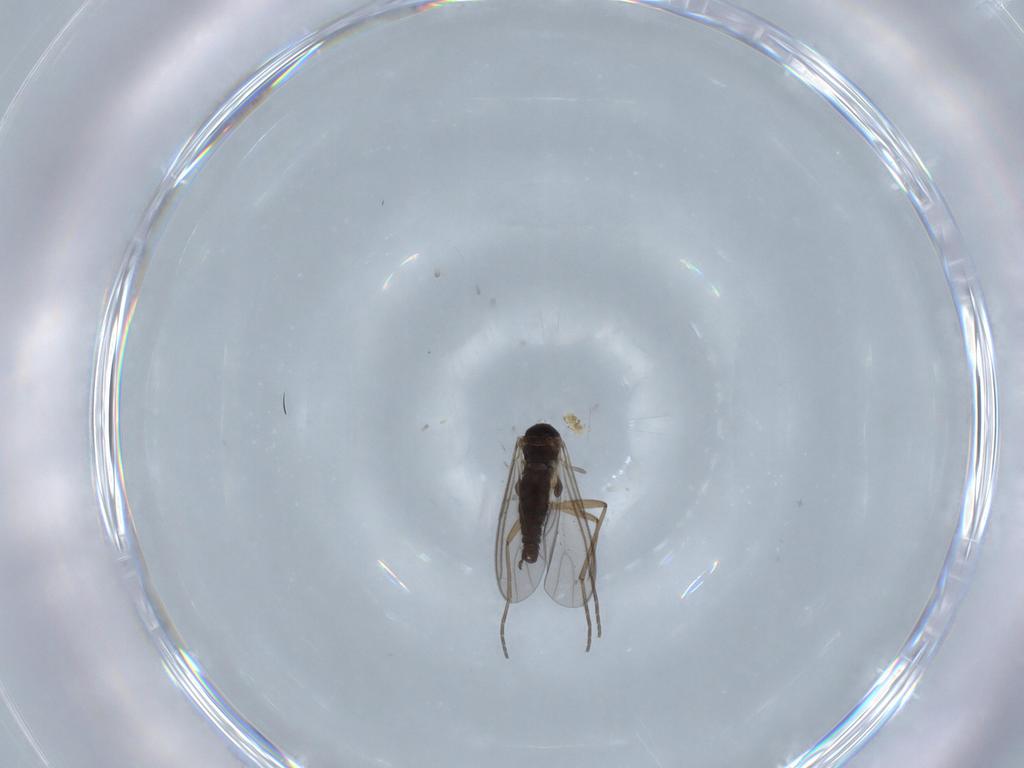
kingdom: Animalia
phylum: Arthropoda
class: Insecta
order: Diptera
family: Sciaridae
